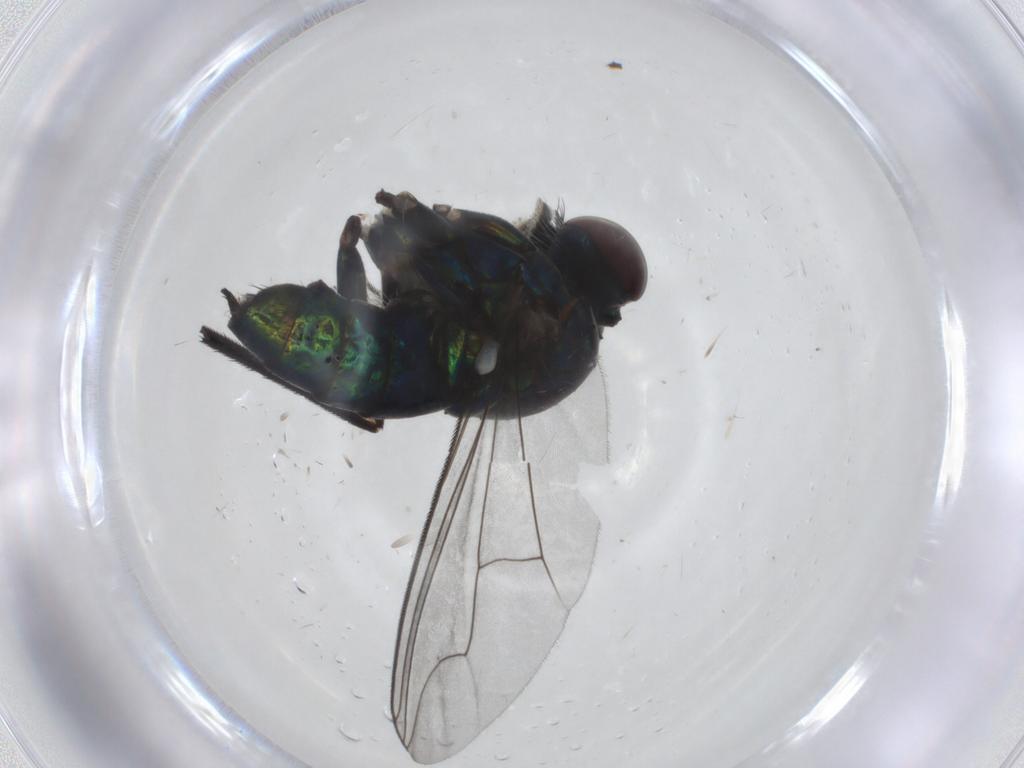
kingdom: Animalia
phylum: Arthropoda
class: Insecta
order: Diptera
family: Dolichopodidae
